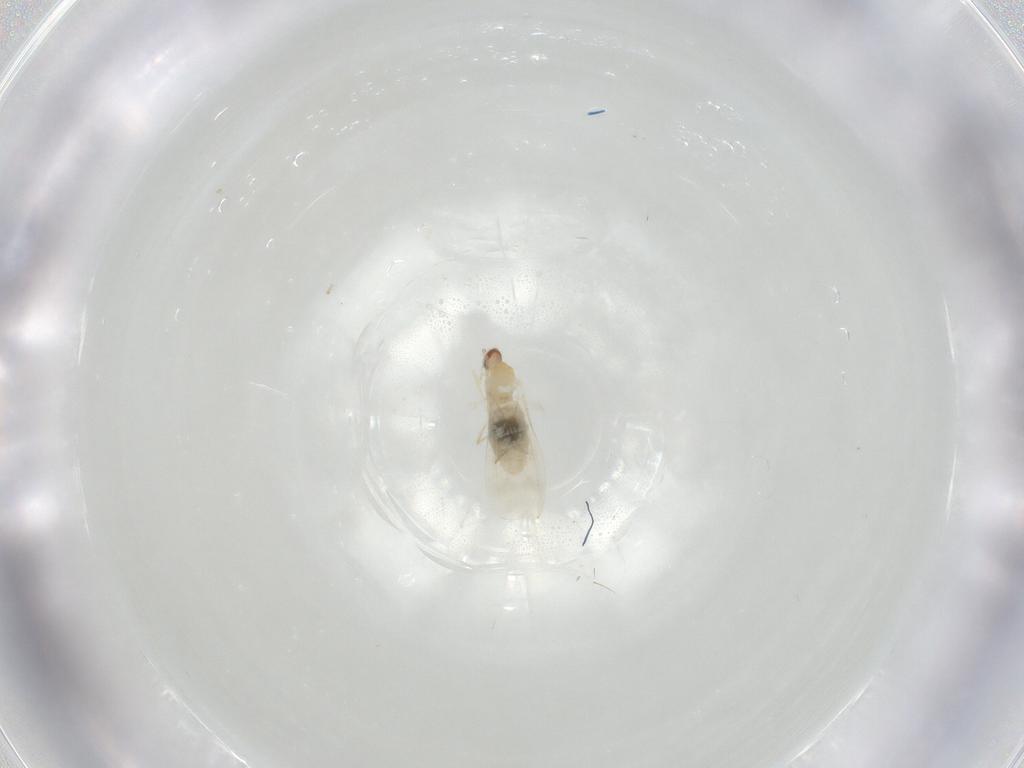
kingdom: Animalia
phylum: Arthropoda
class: Insecta
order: Diptera
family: Cecidomyiidae
